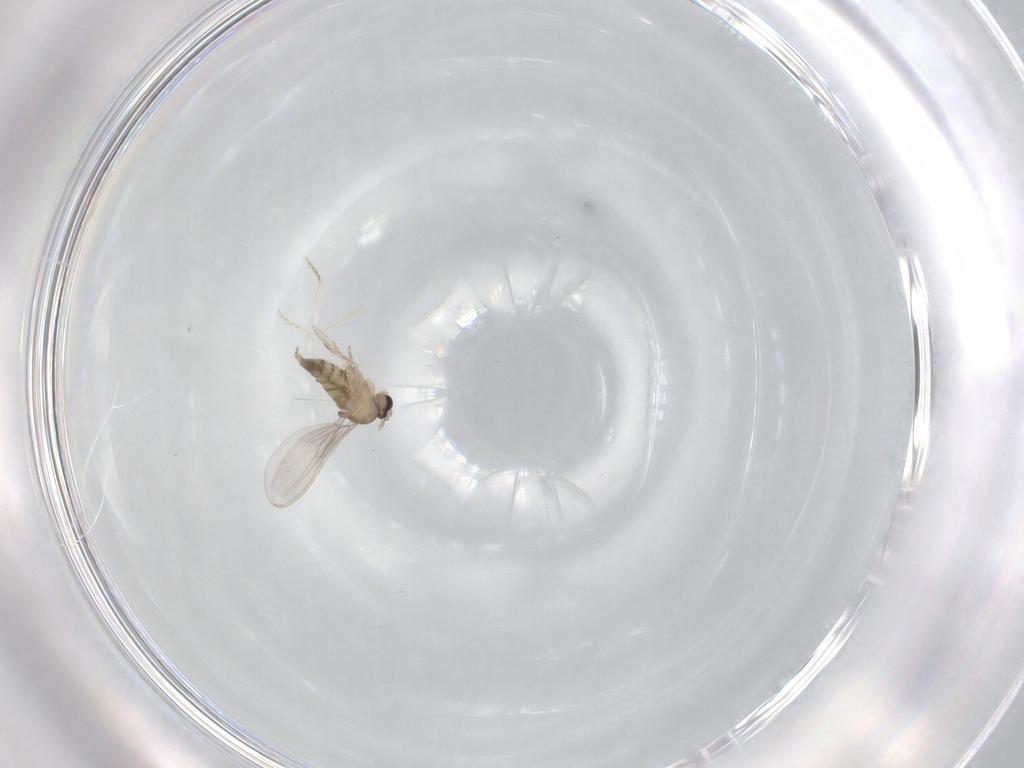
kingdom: Animalia
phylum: Arthropoda
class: Insecta
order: Diptera
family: Cecidomyiidae
